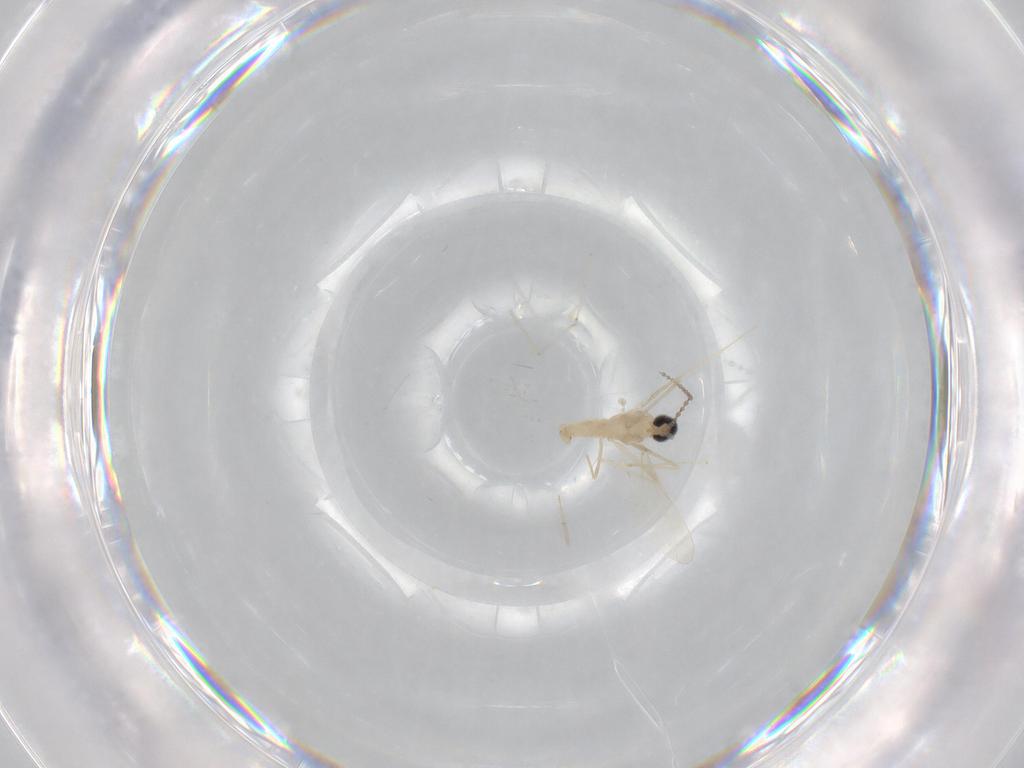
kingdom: Animalia
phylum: Arthropoda
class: Insecta
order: Diptera
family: Cecidomyiidae
